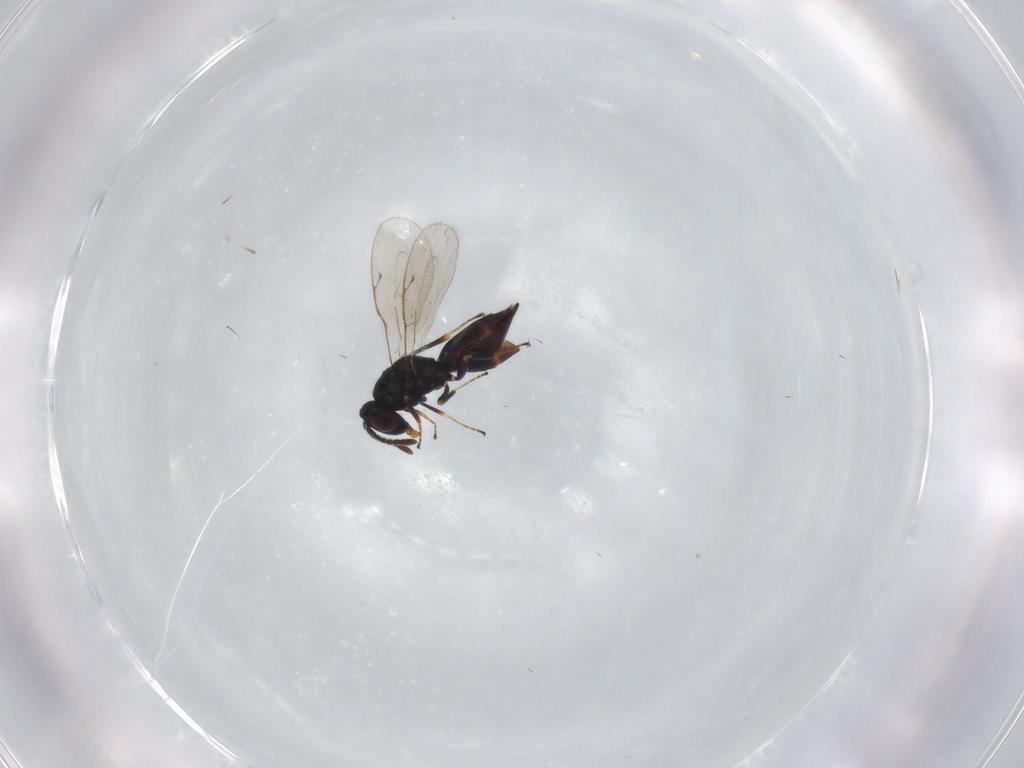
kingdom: Animalia
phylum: Arthropoda
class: Insecta
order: Hymenoptera
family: Pteromalidae
